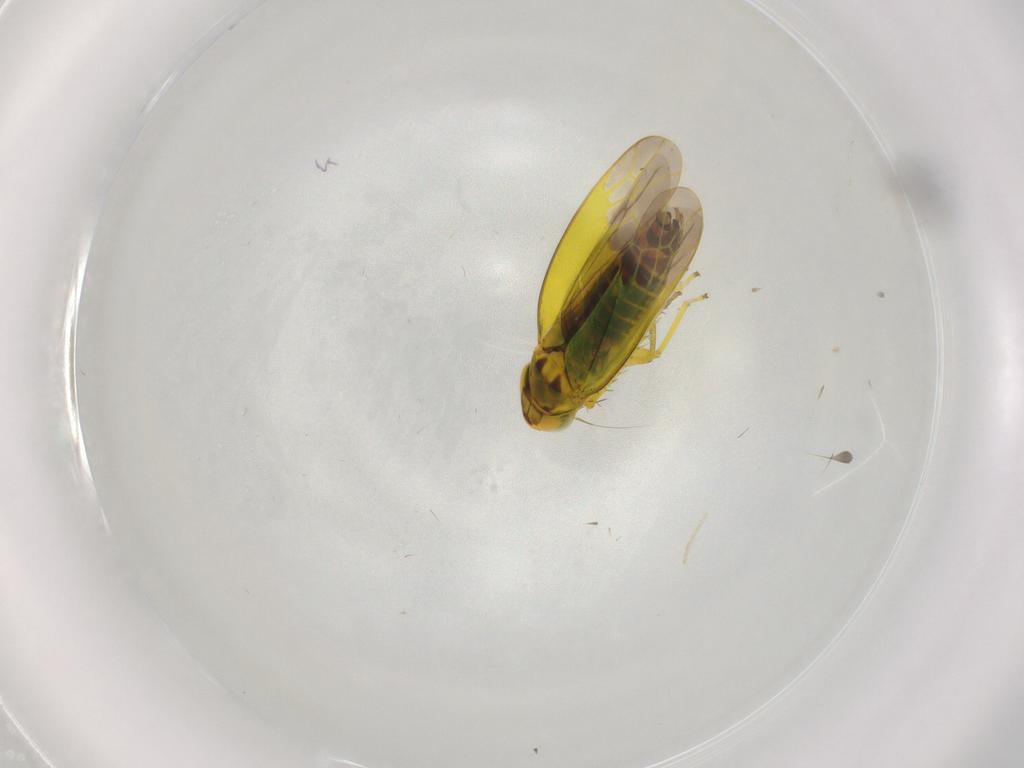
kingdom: Animalia
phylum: Arthropoda
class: Insecta
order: Hemiptera
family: Cicadellidae
